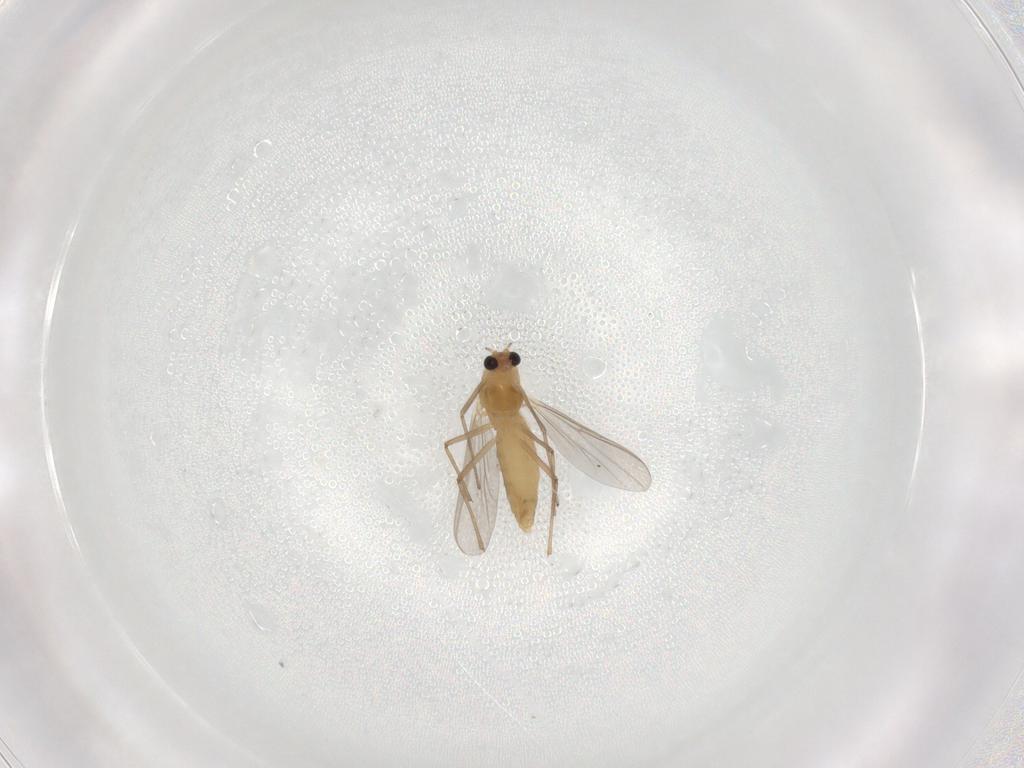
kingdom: Animalia
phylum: Arthropoda
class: Insecta
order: Diptera
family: Chironomidae
